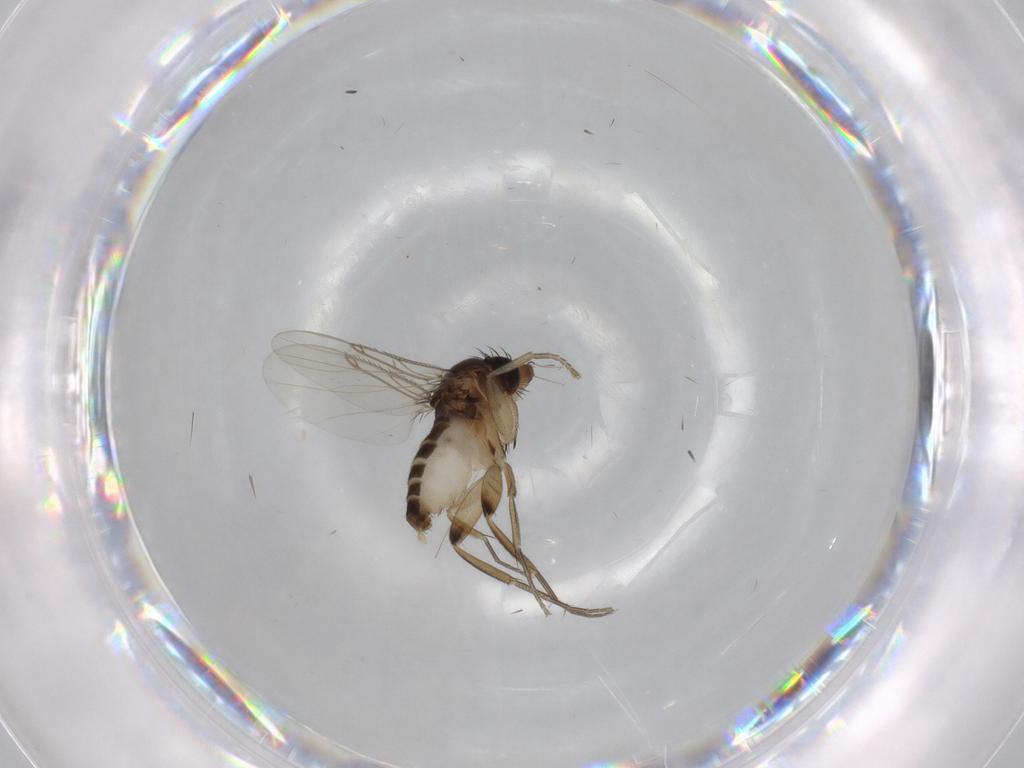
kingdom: Animalia
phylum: Arthropoda
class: Insecta
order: Diptera
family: Phoridae
